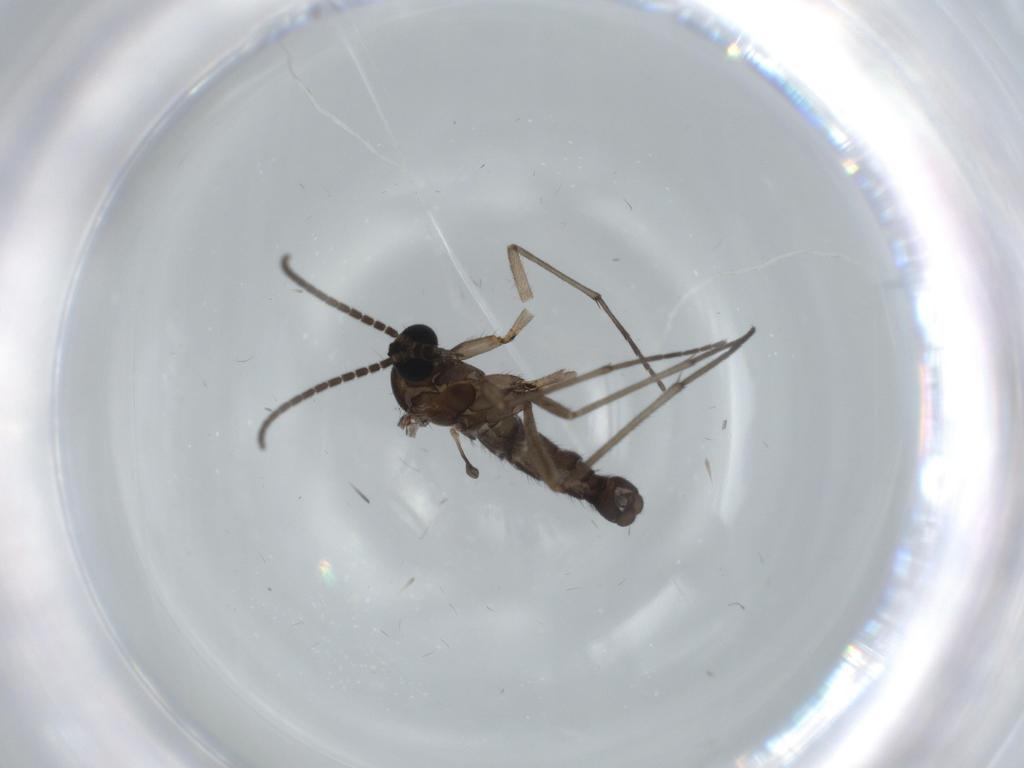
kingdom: Animalia
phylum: Arthropoda
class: Insecta
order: Diptera
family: Sciaridae
